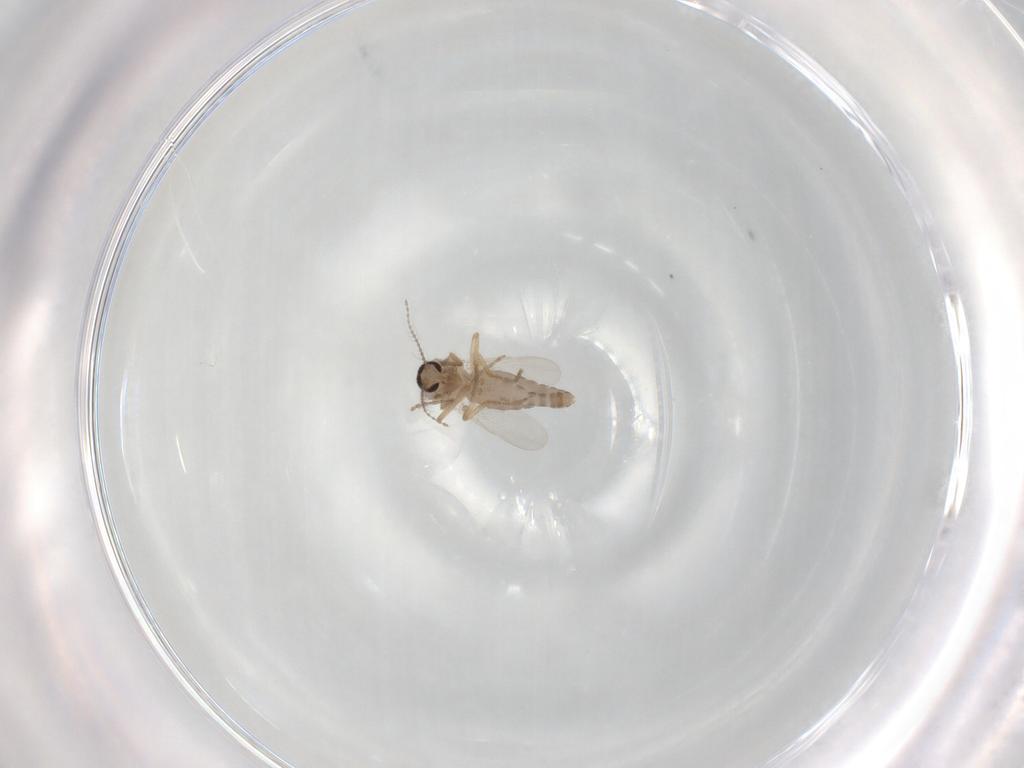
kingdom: Animalia
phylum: Arthropoda
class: Insecta
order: Diptera
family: Ceratopogonidae
